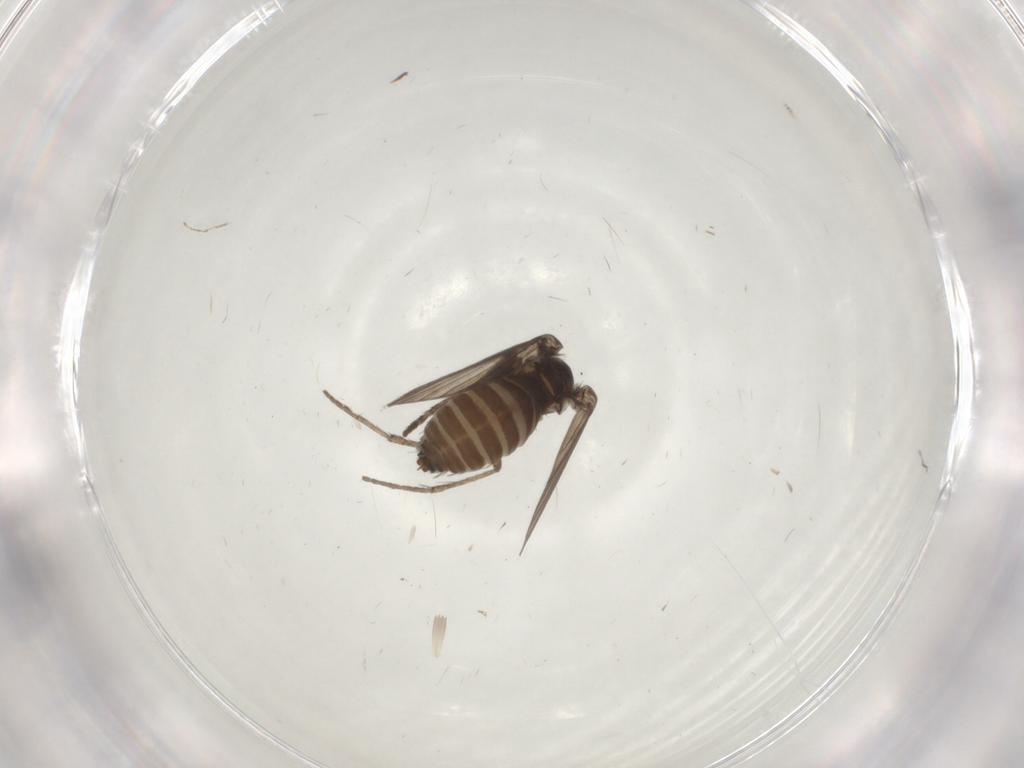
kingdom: Animalia
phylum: Arthropoda
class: Insecta
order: Diptera
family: Psychodidae
